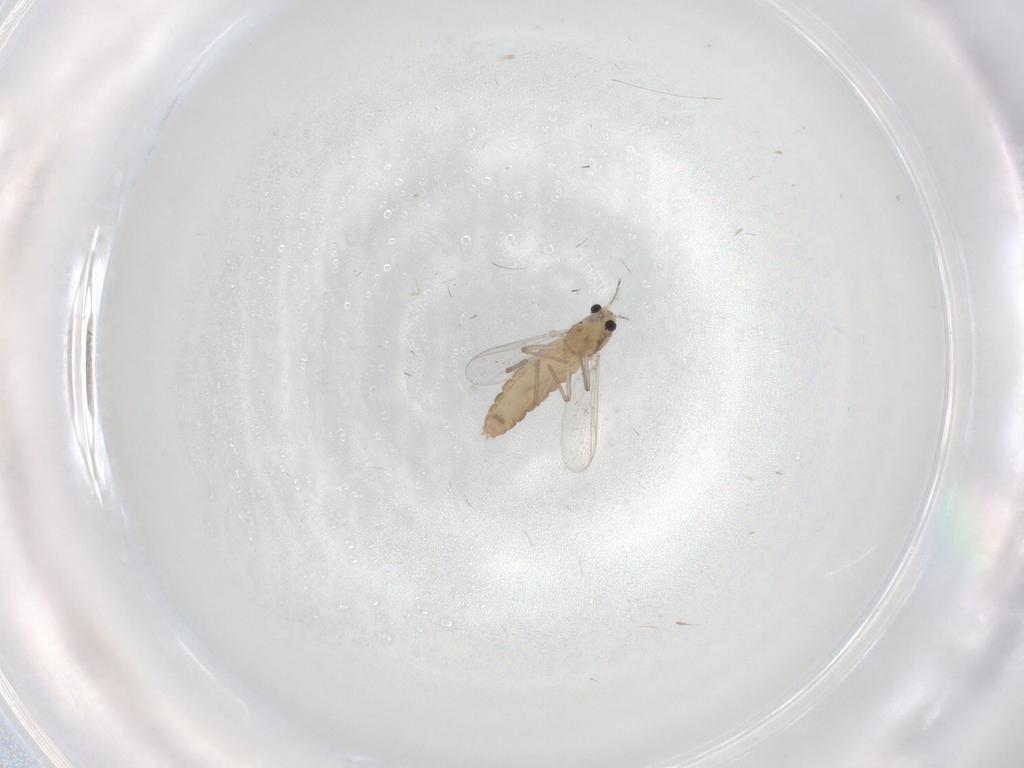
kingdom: Animalia
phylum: Arthropoda
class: Insecta
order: Diptera
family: Chironomidae
